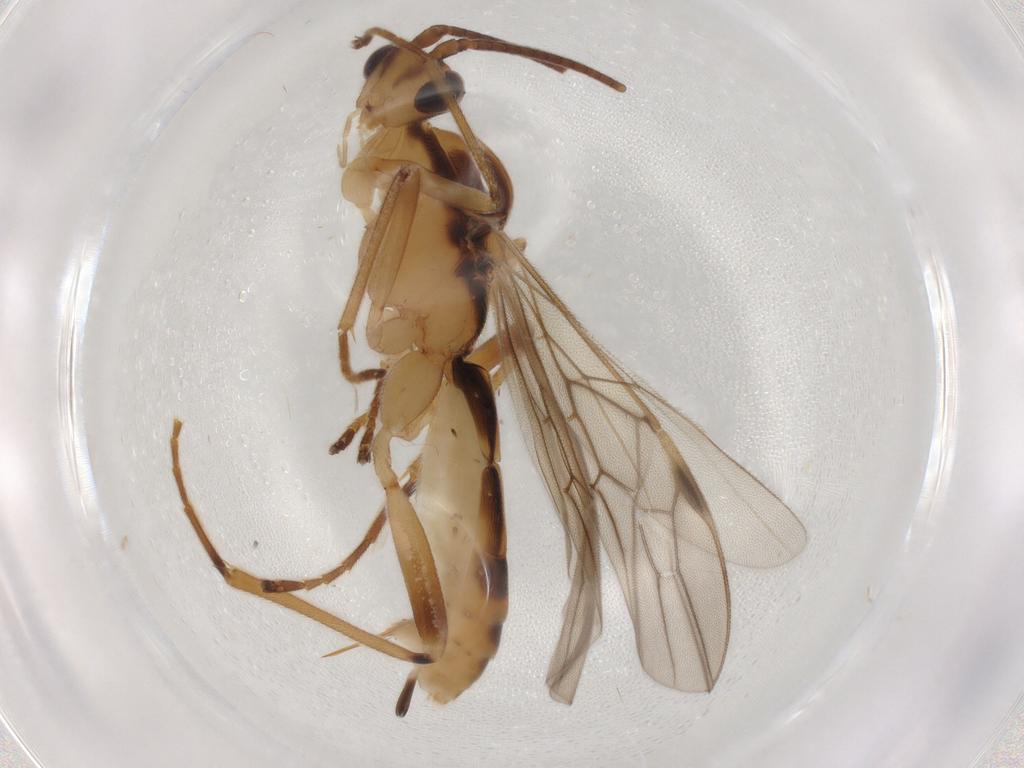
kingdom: Animalia
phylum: Arthropoda
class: Insecta
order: Hymenoptera
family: Braconidae
